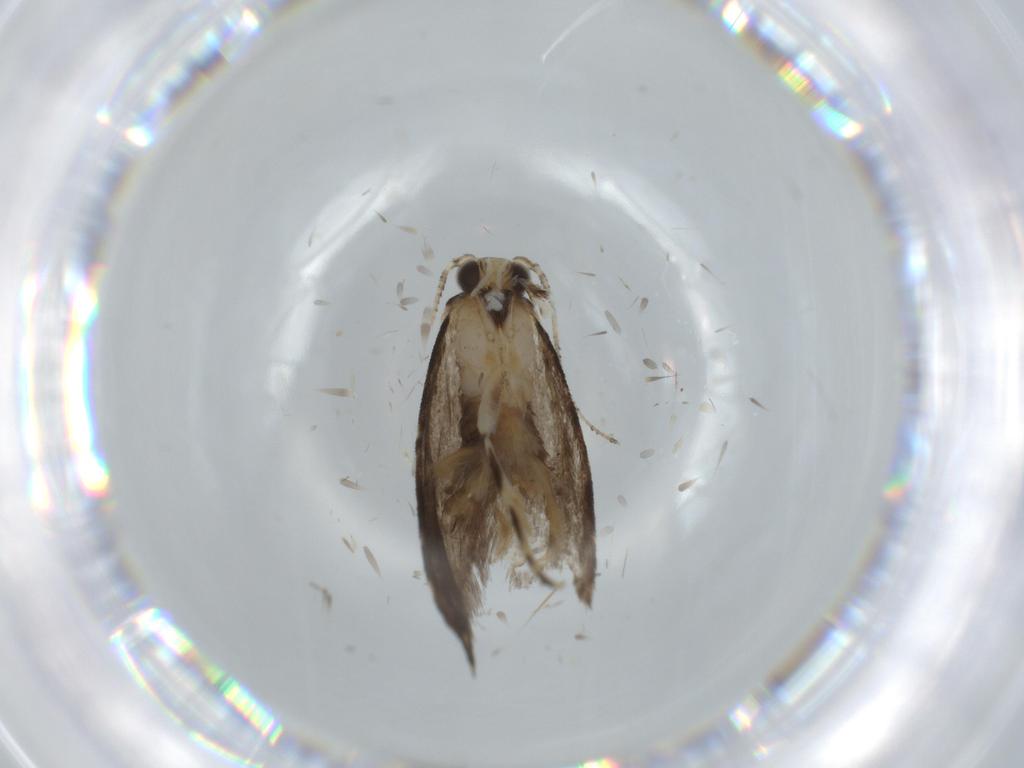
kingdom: Animalia
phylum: Arthropoda
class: Insecta
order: Lepidoptera
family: Tineidae
